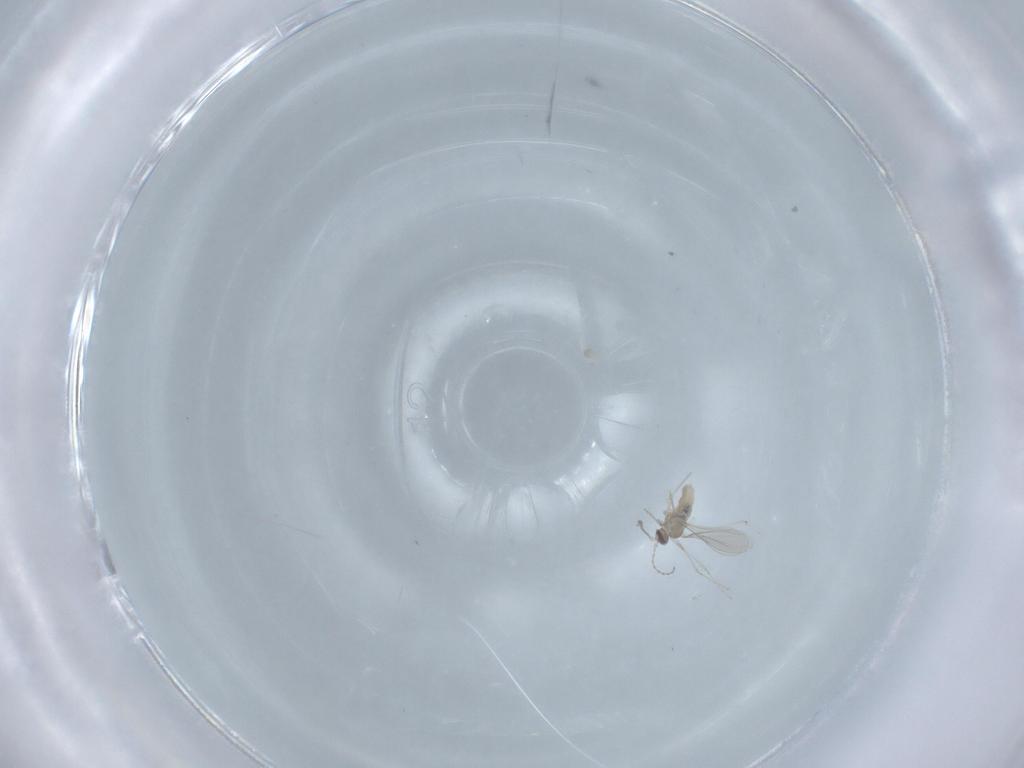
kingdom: Animalia
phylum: Arthropoda
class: Insecta
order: Diptera
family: Cecidomyiidae
